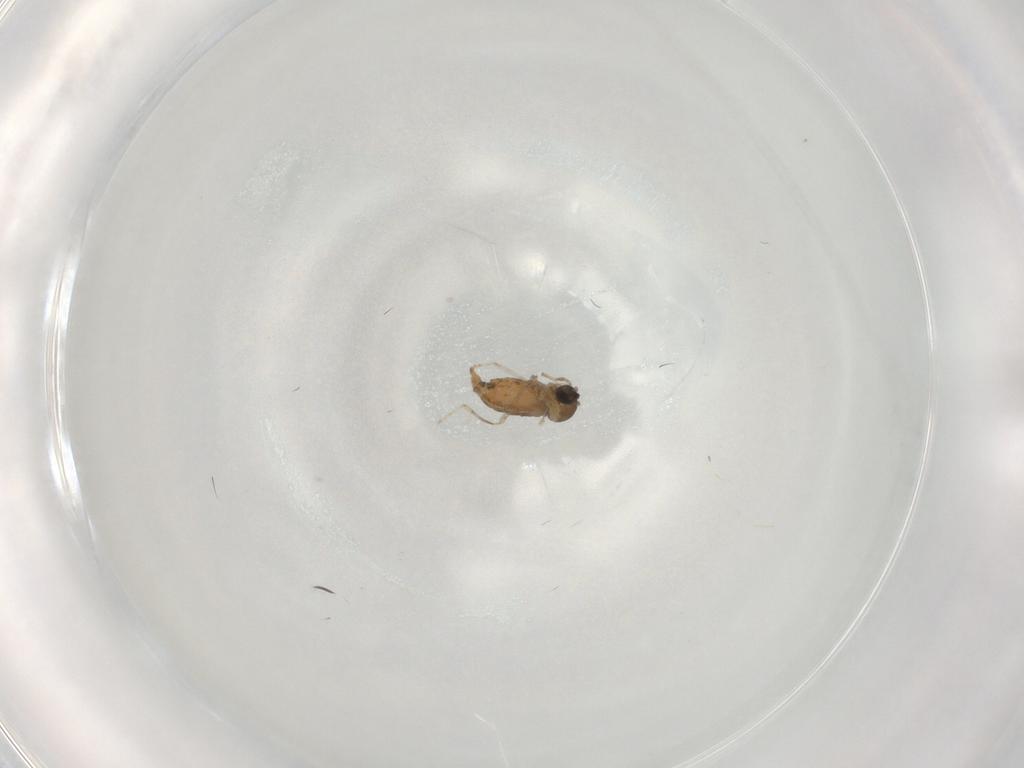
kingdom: Animalia
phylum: Arthropoda
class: Insecta
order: Diptera
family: Cecidomyiidae
